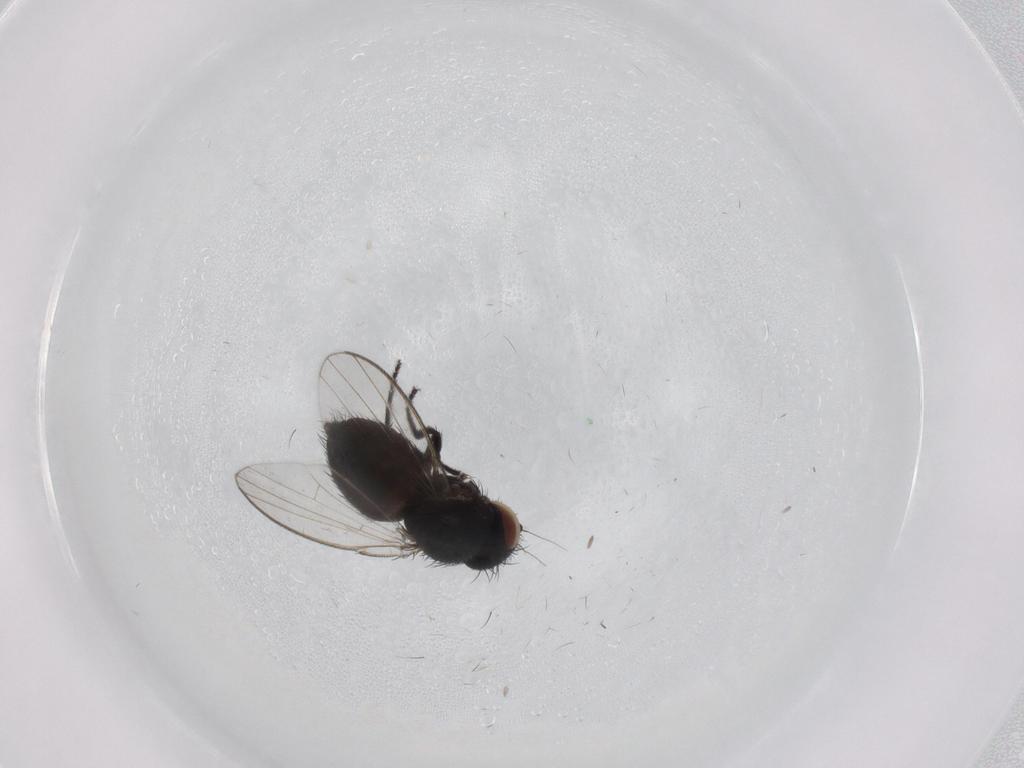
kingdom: Animalia
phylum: Arthropoda
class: Insecta
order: Diptera
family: Milichiidae
